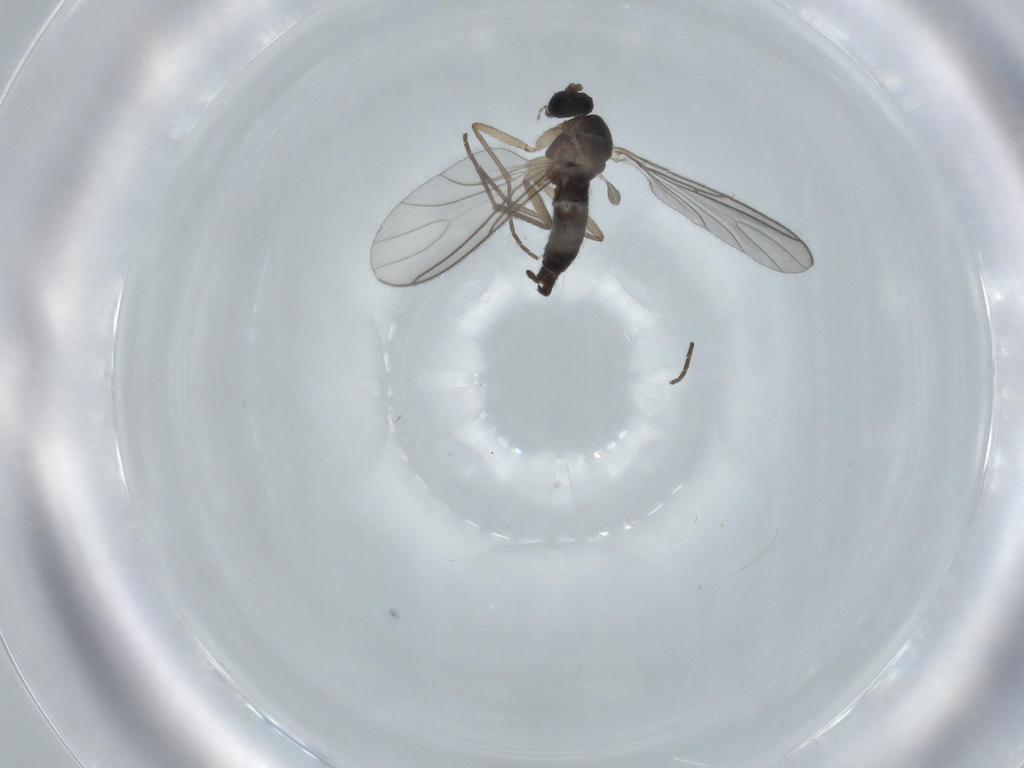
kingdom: Animalia
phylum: Arthropoda
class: Insecta
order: Diptera
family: Sciaridae
